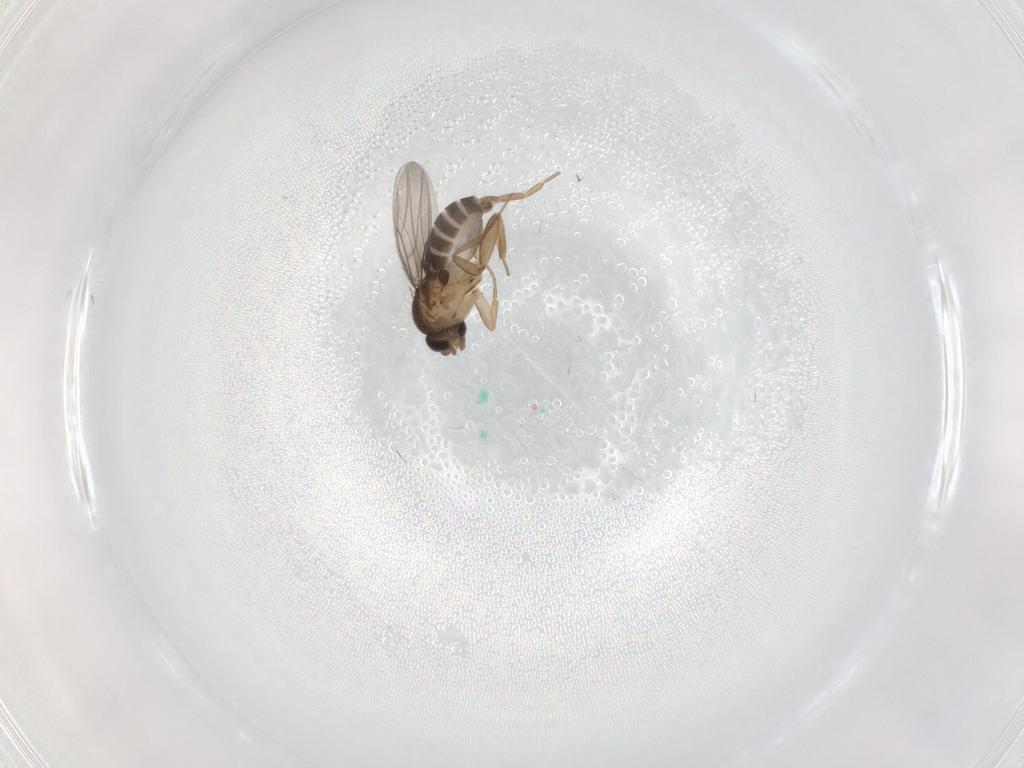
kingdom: Animalia
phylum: Arthropoda
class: Insecta
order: Diptera
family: Phoridae
